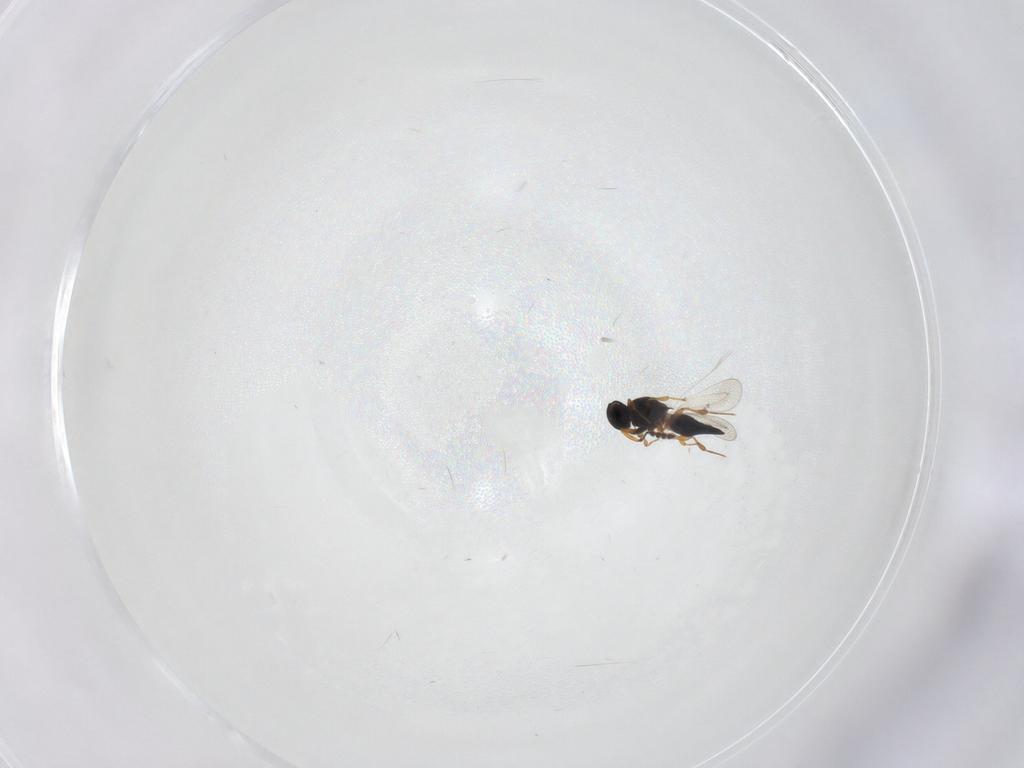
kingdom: Animalia
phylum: Arthropoda
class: Insecta
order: Hymenoptera
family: Platygastridae
